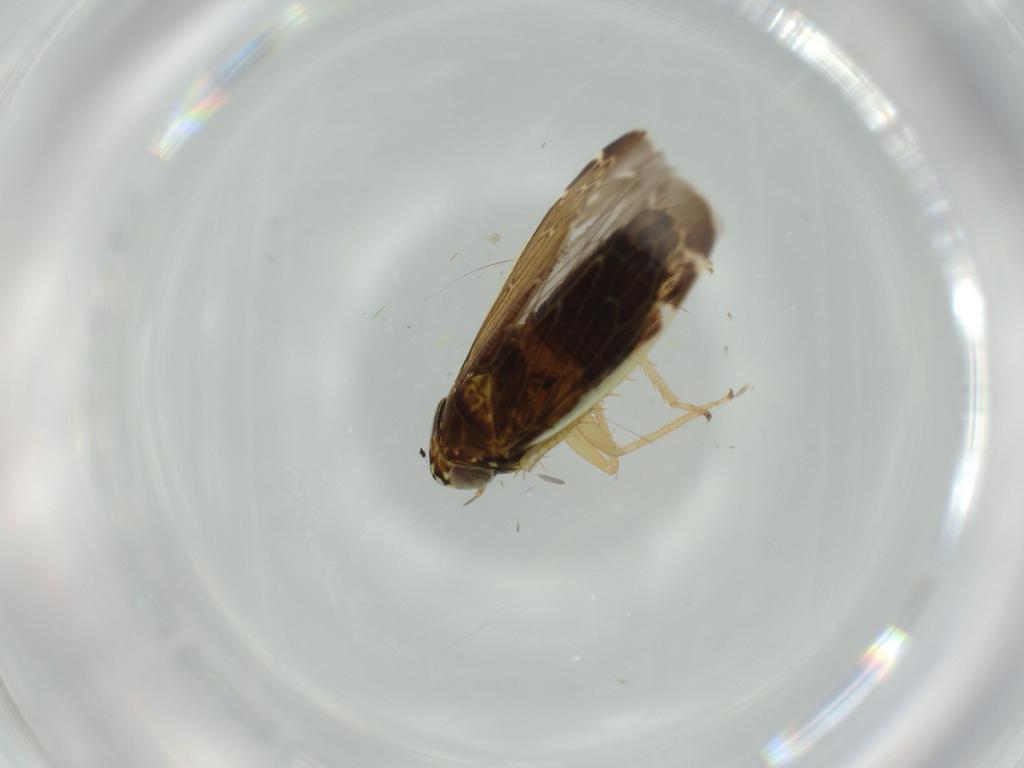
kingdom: Animalia
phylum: Arthropoda
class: Insecta
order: Hemiptera
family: Cicadellidae
